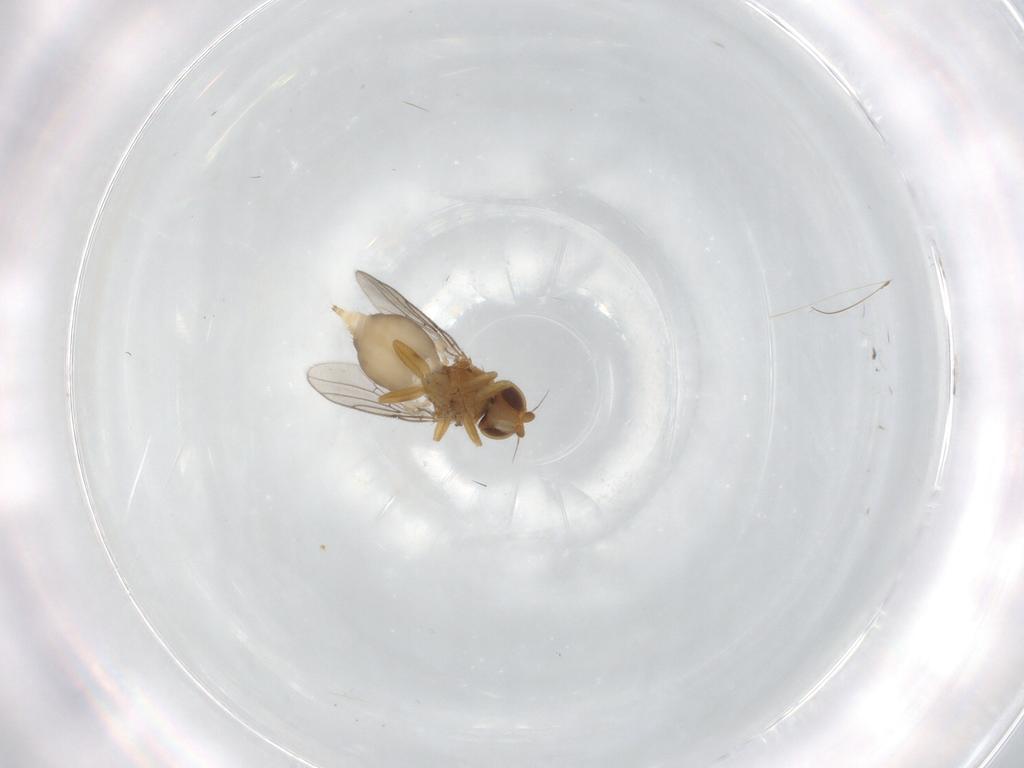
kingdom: Animalia
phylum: Arthropoda
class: Insecta
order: Diptera
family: Chloropidae
